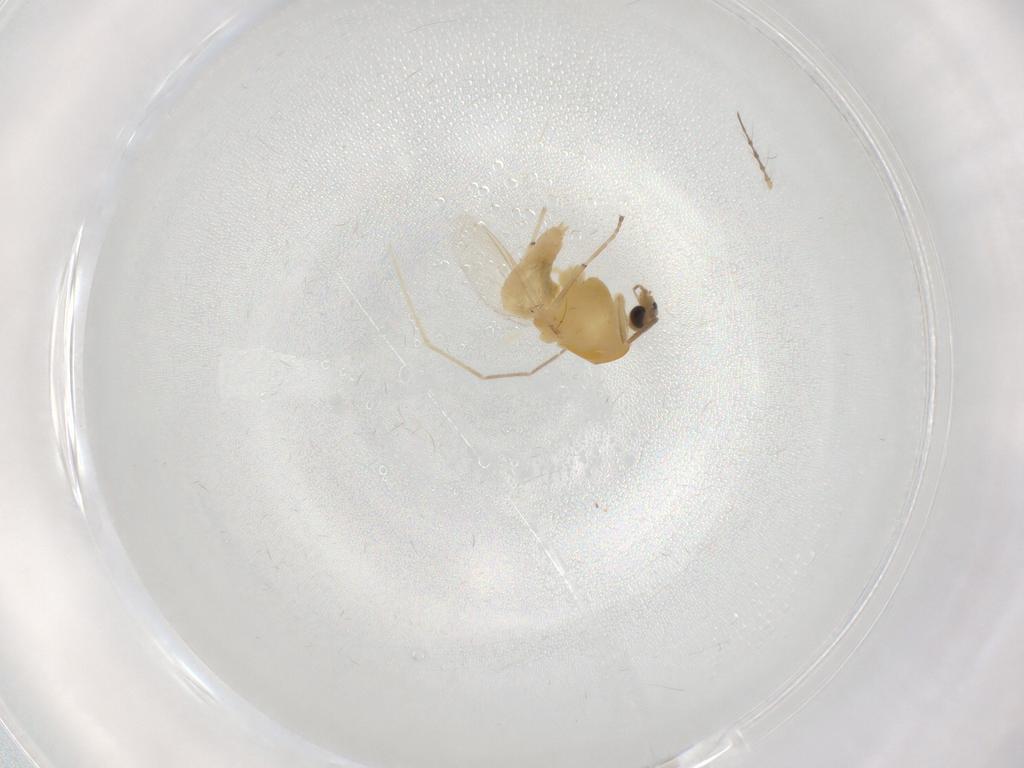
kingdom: Animalia
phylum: Arthropoda
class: Insecta
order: Diptera
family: Chironomidae
